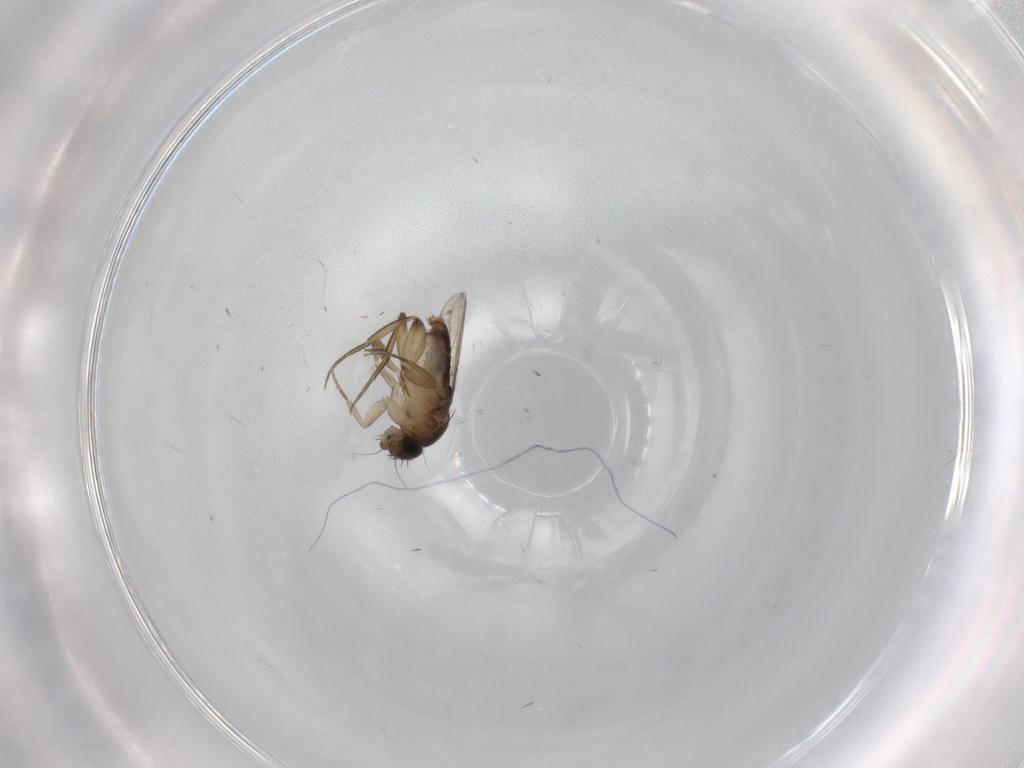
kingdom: Animalia
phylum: Arthropoda
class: Insecta
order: Diptera
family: Phoridae
